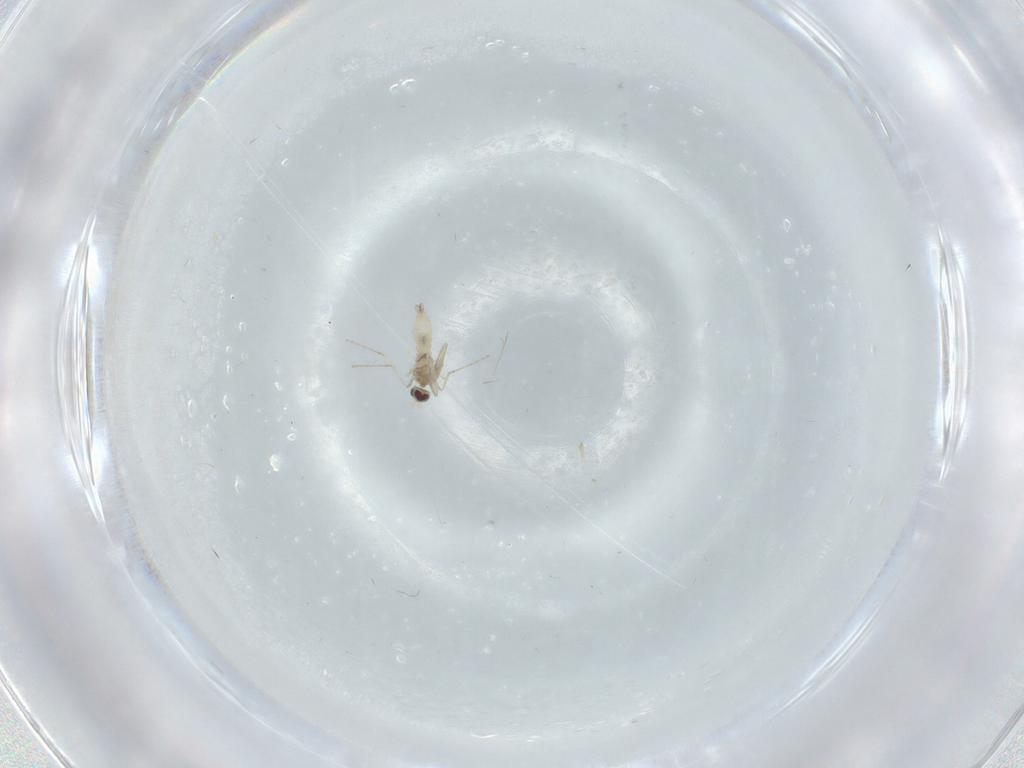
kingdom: Animalia
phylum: Arthropoda
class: Insecta
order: Diptera
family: Cecidomyiidae
